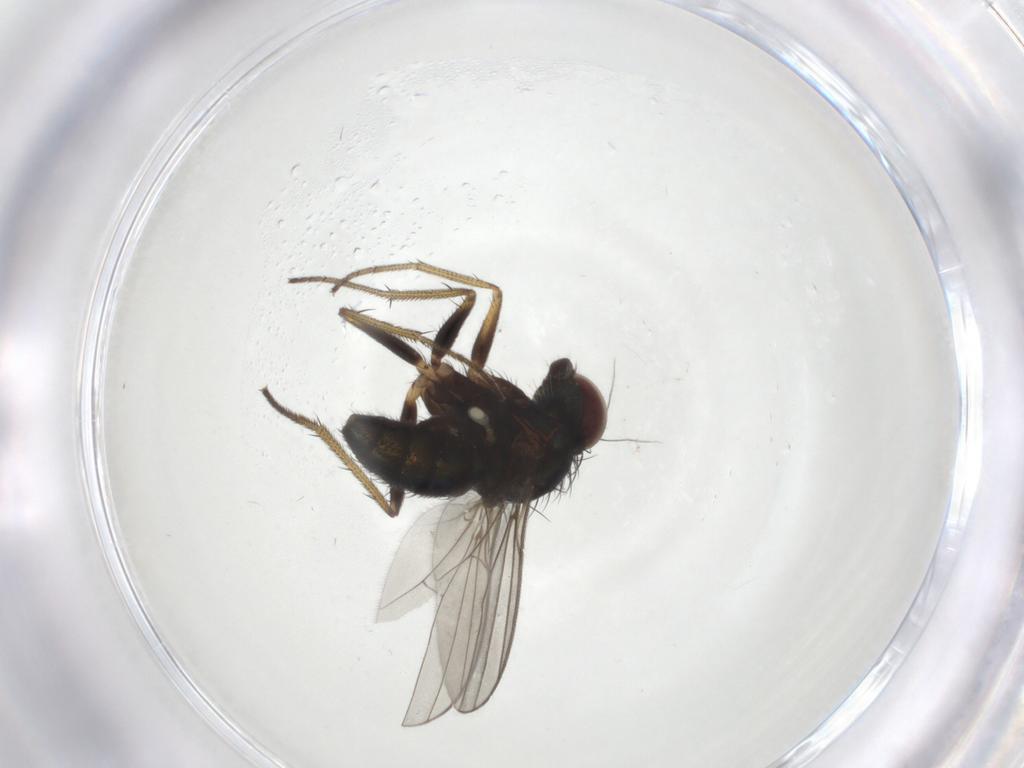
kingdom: Animalia
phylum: Arthropoda
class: Insecta
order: Diptera
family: Dolichopodidae
